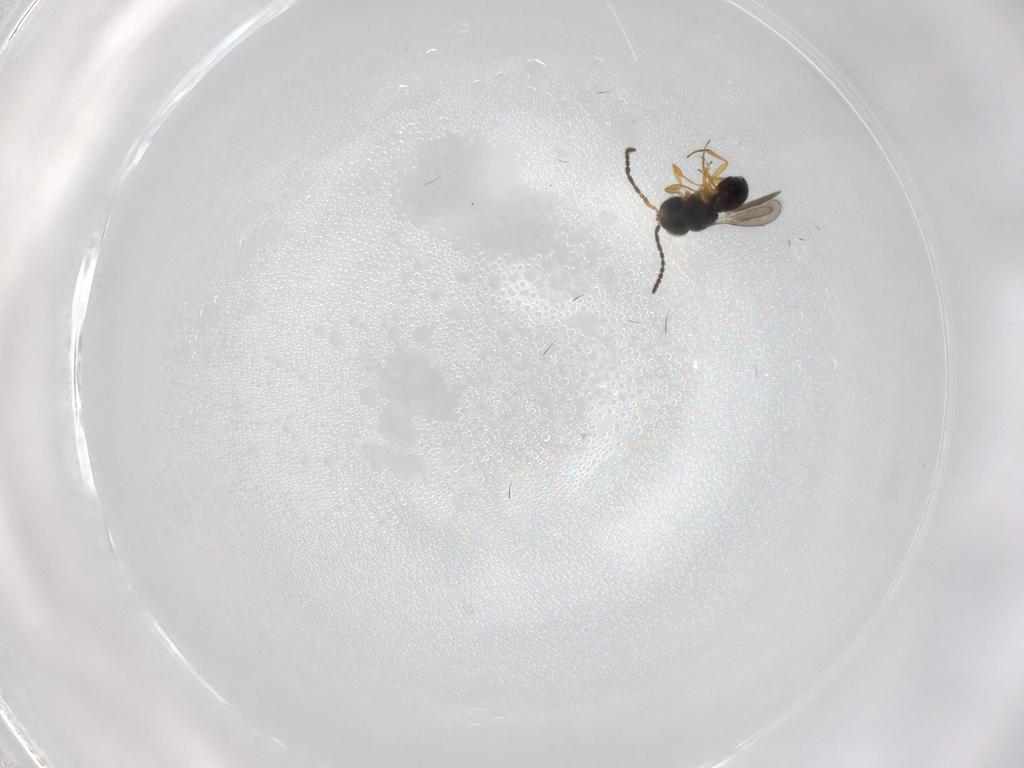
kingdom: Animalia
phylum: Arthropoda
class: Insecta
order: Hymenoptera
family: Scelionidae
